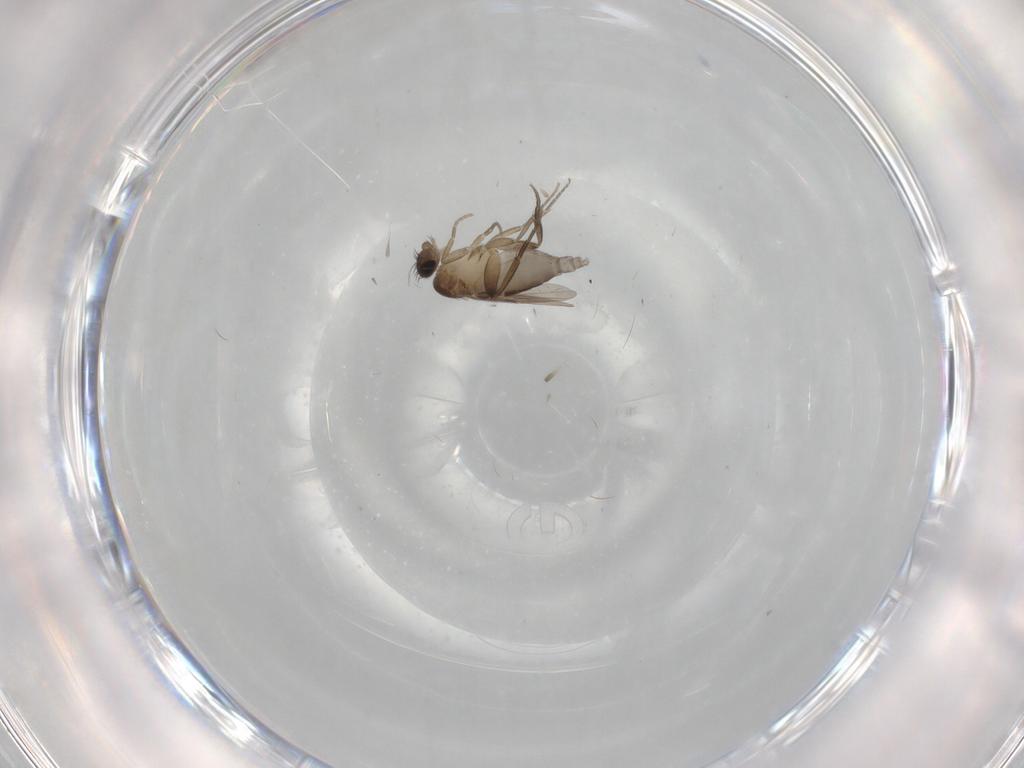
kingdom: Animalia
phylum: Arthropoda
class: Insecta
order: Diptera
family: Phoridae
